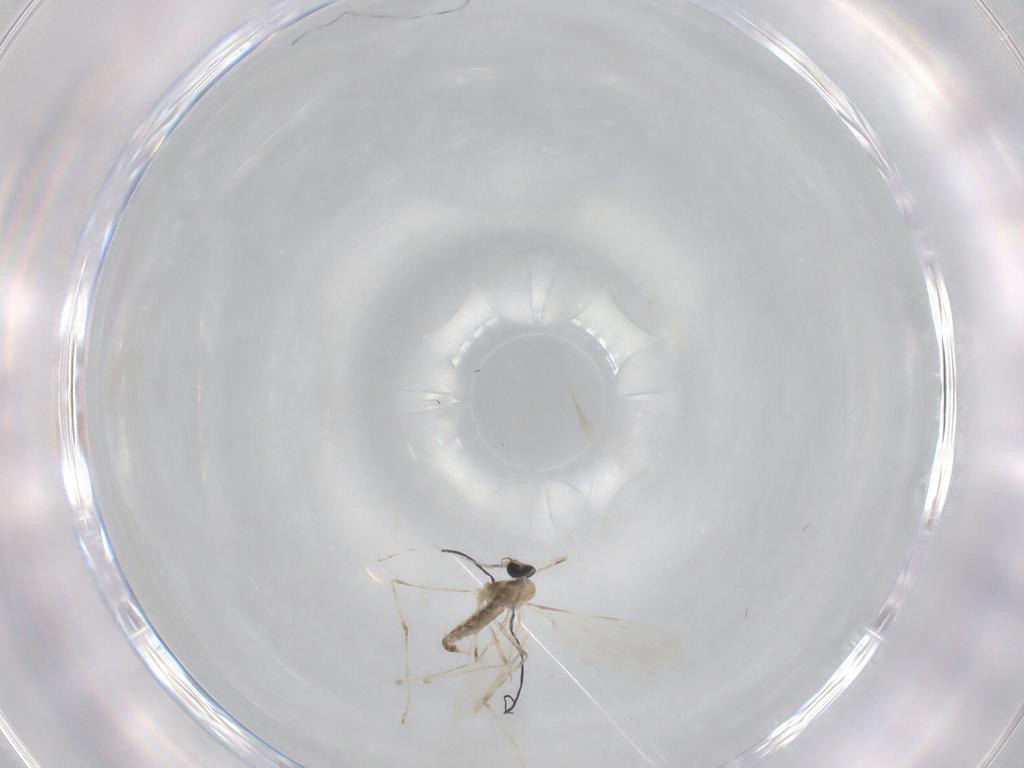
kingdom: Animalia
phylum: Arthropoda
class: Insecta
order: Diptera
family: Cecidomyiidae
